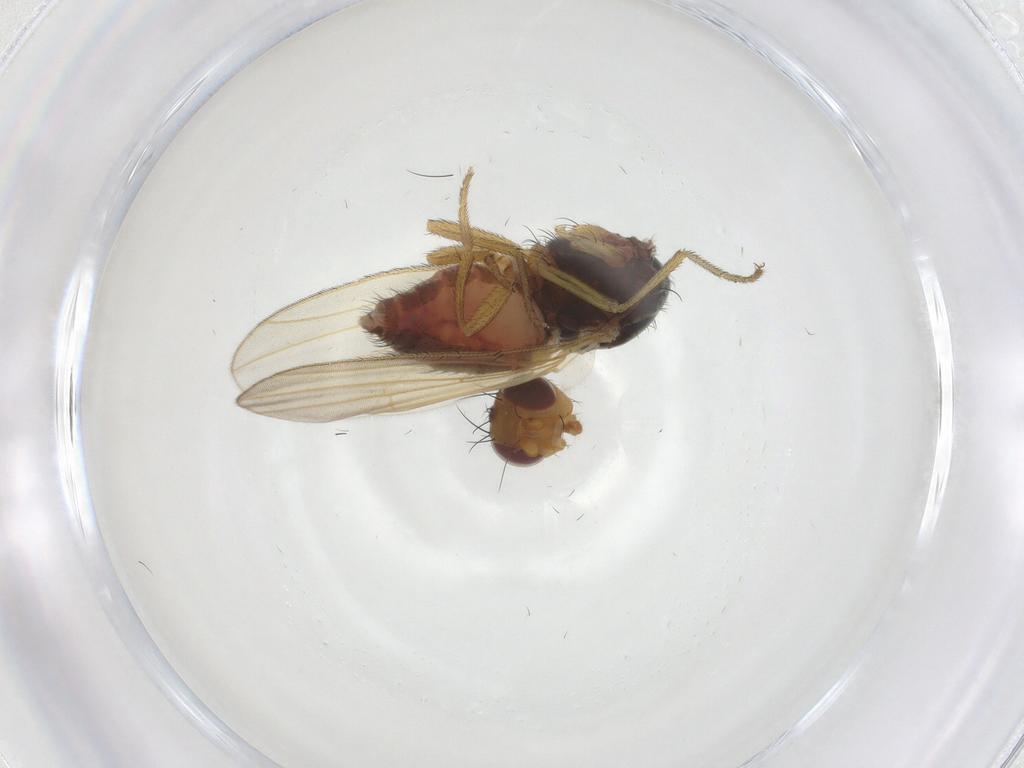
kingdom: Animalia
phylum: Arthropoda
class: Insecta
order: Diptera
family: Heleomyzidae
